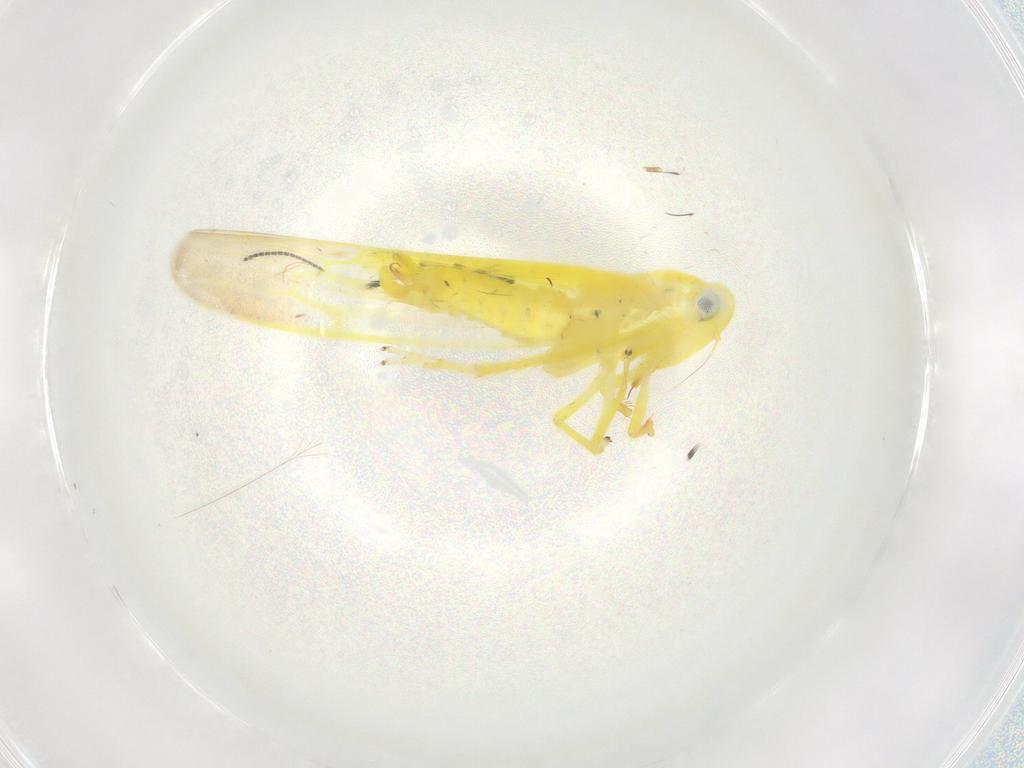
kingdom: Animalia
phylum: Arthropoda
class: Insecta
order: Hemiptera
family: Cicadellidae
